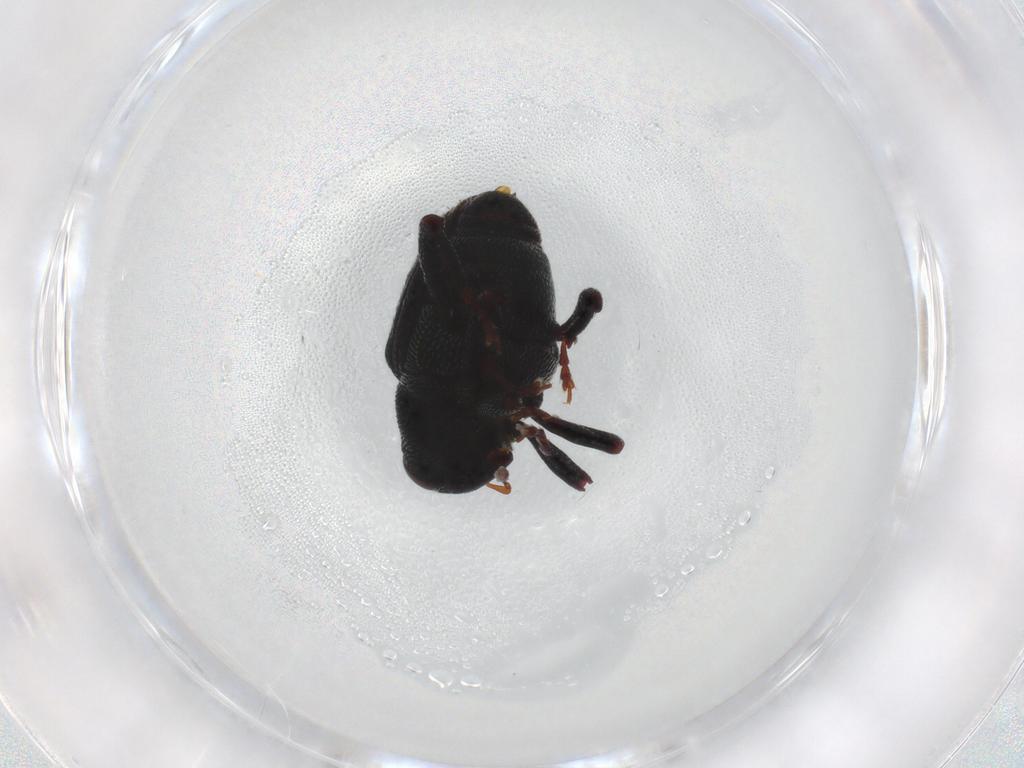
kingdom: Animalia
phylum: Arthropoda
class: Insecta
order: Coleoptera
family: Curculionidae
